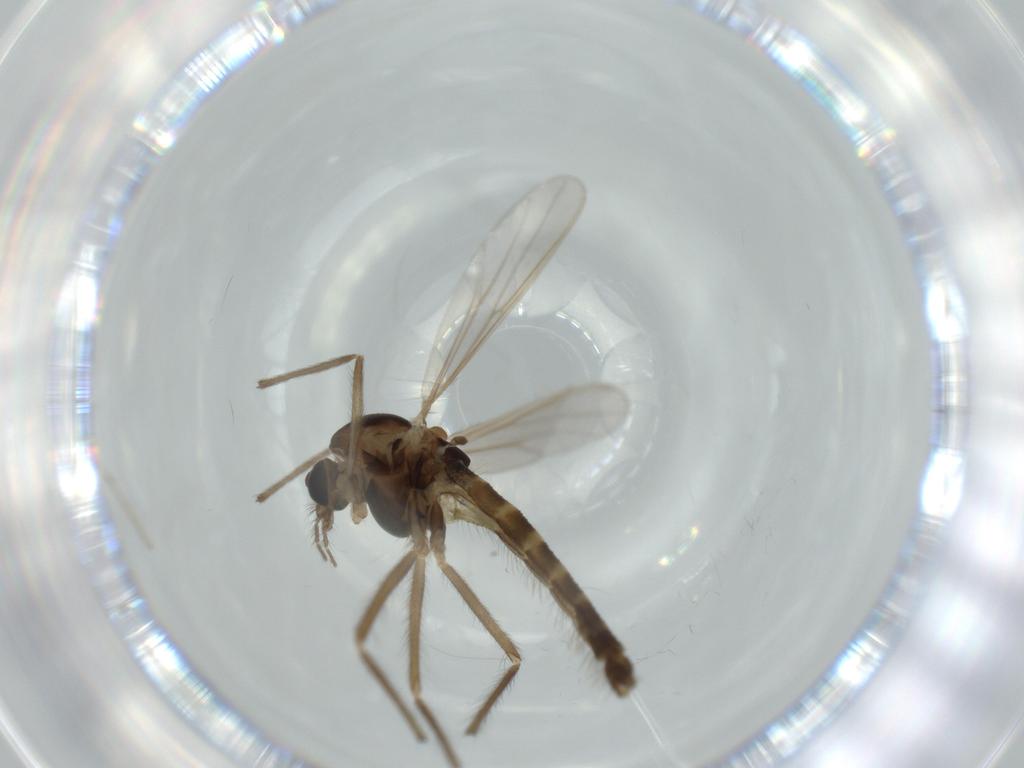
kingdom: Animalia
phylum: Arthropoda
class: Insecta
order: Diptera
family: Chironomidae
